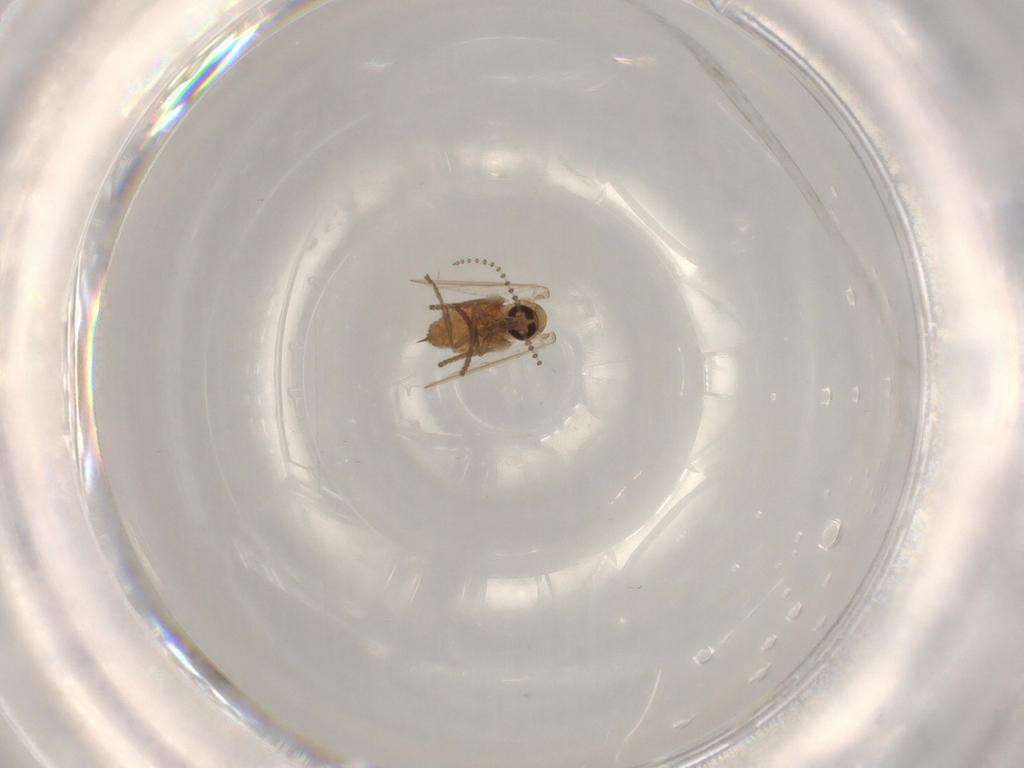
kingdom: Animalia
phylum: Arthropoda
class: Insecta
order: Diptera
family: Psychodidae
